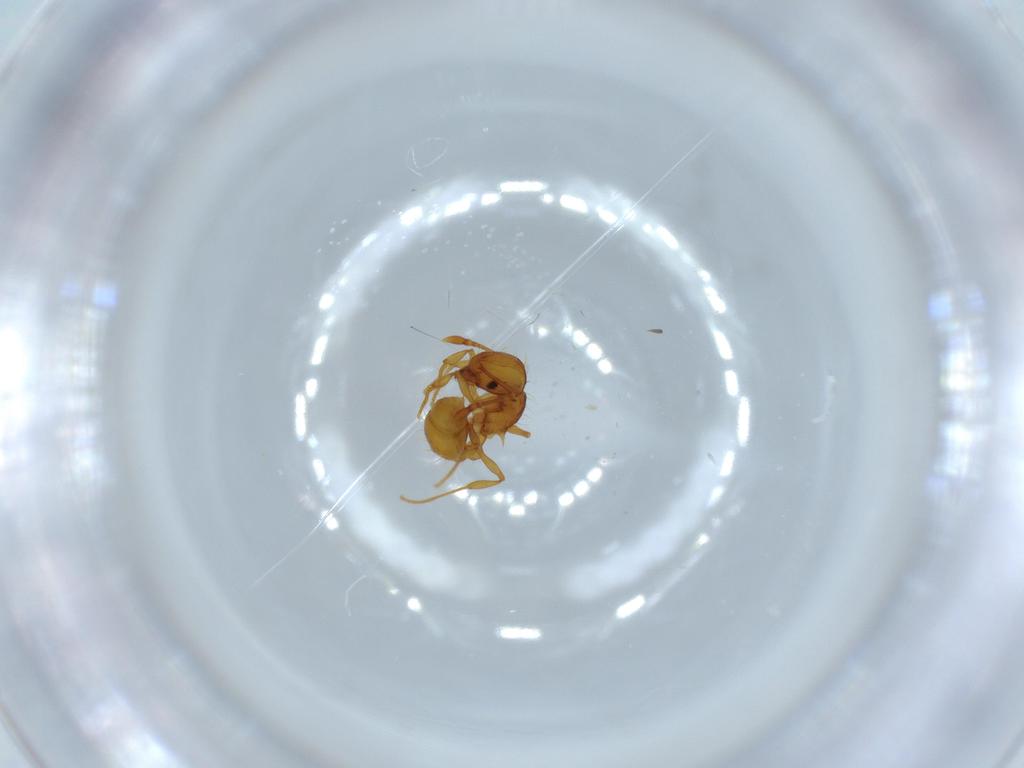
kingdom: Animalia
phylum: Arthropoda
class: Insecta
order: Hymenoptera
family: Formicidae
